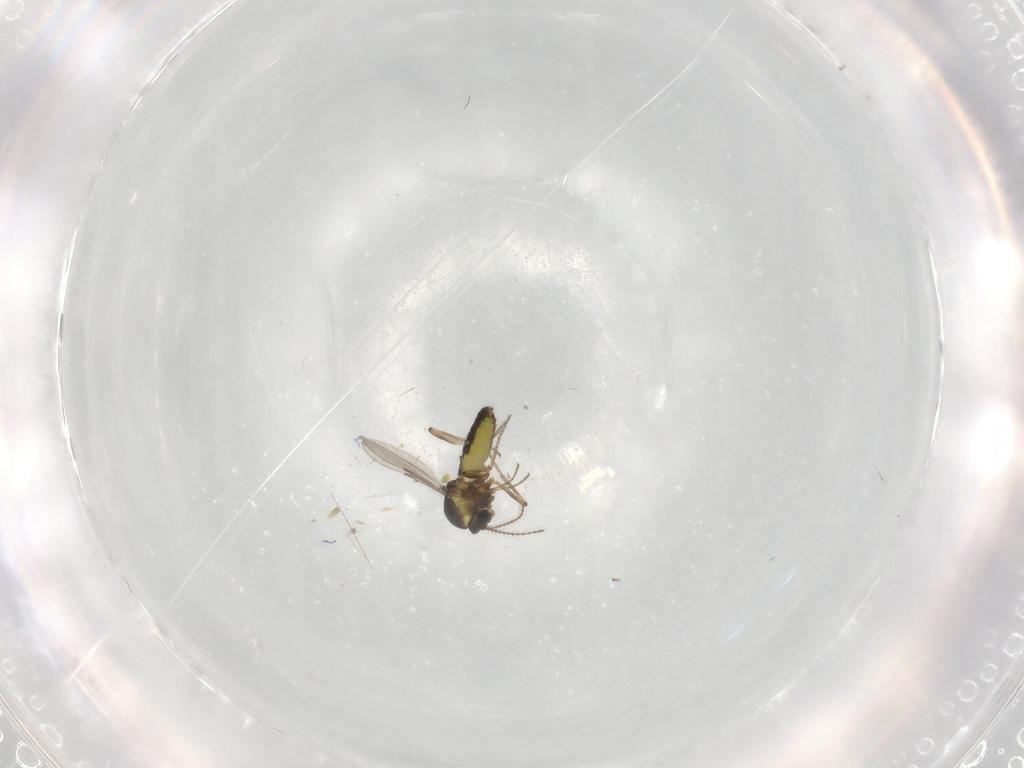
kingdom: Animalia
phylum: Arthropoda
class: Insecta
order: Diptera
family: Ceratopogonidae
